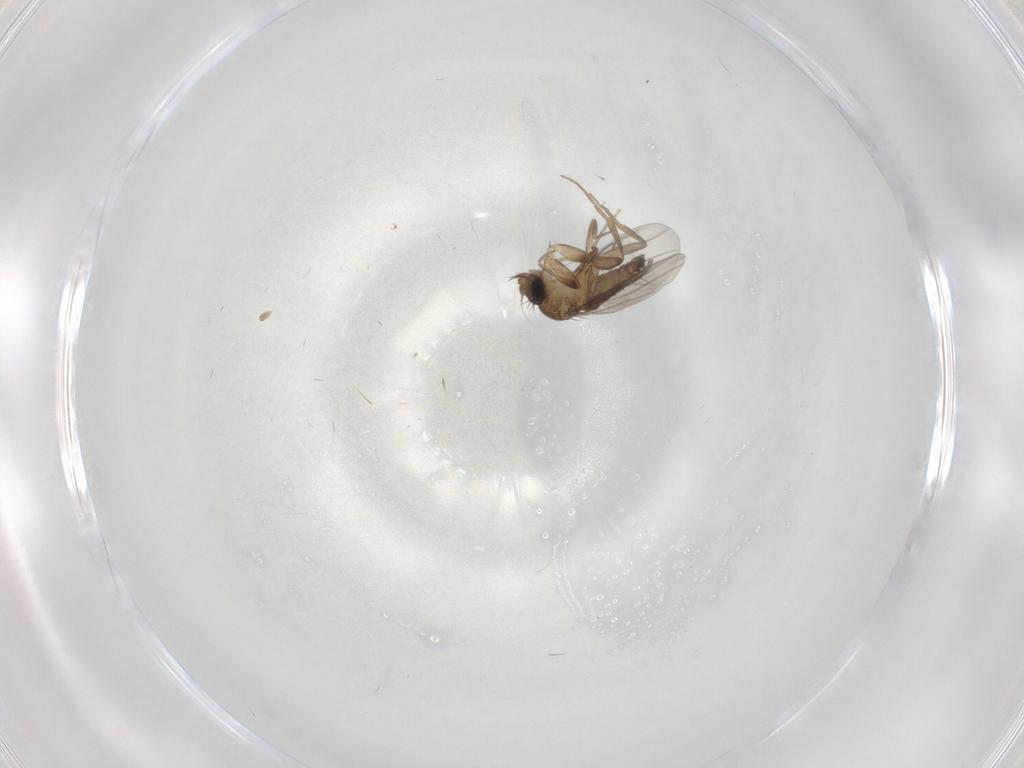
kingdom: Animalia
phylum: Arthropoda
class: Insecta
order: Diptera
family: Phoridae
